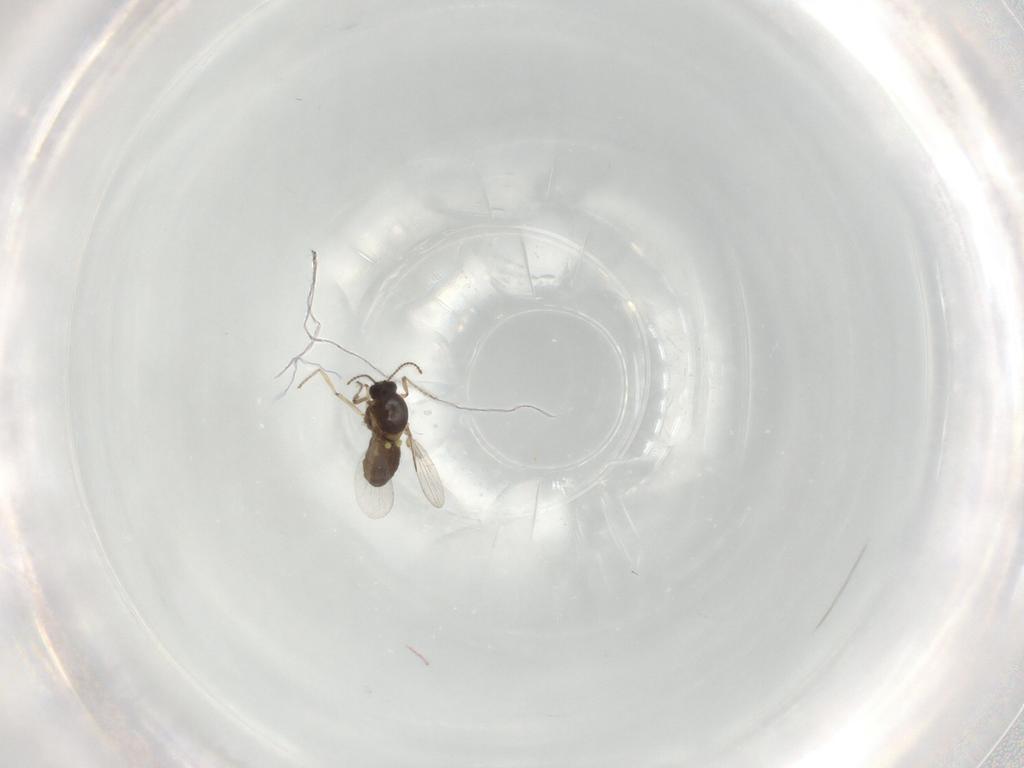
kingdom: Animalia
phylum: Arthropoda
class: Insecta
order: Diptera
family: Ceratopogonidae
